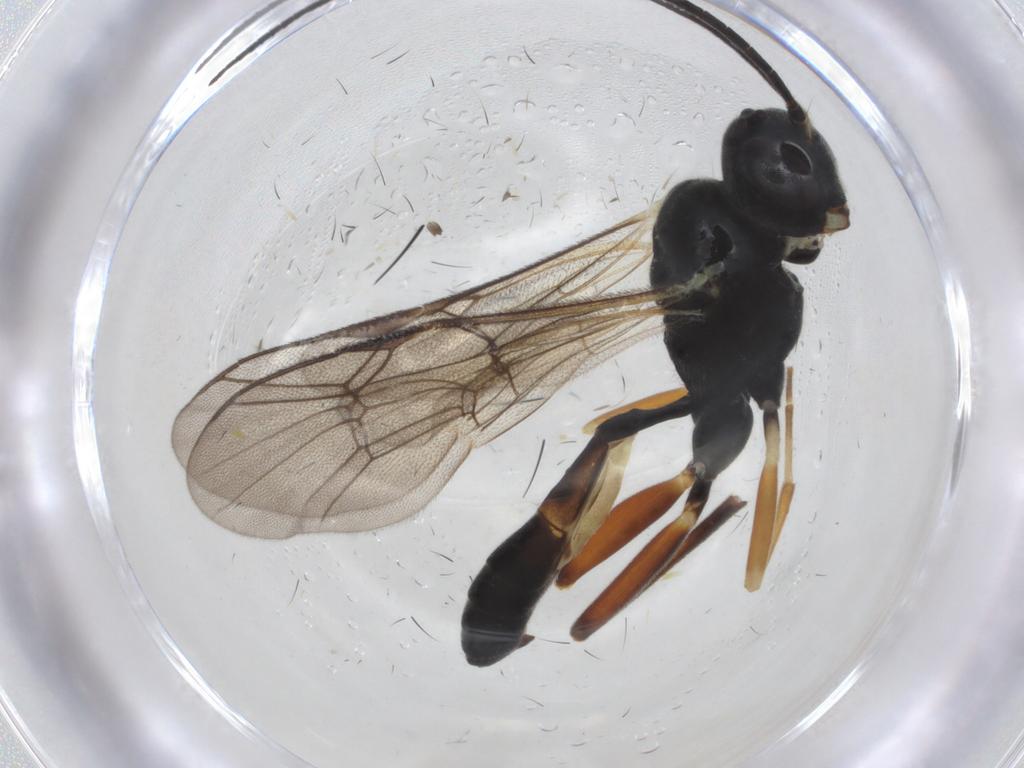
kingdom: Animalia
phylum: Arthropoda
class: Insecta
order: Hymenoptera
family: Ichneumonidae
